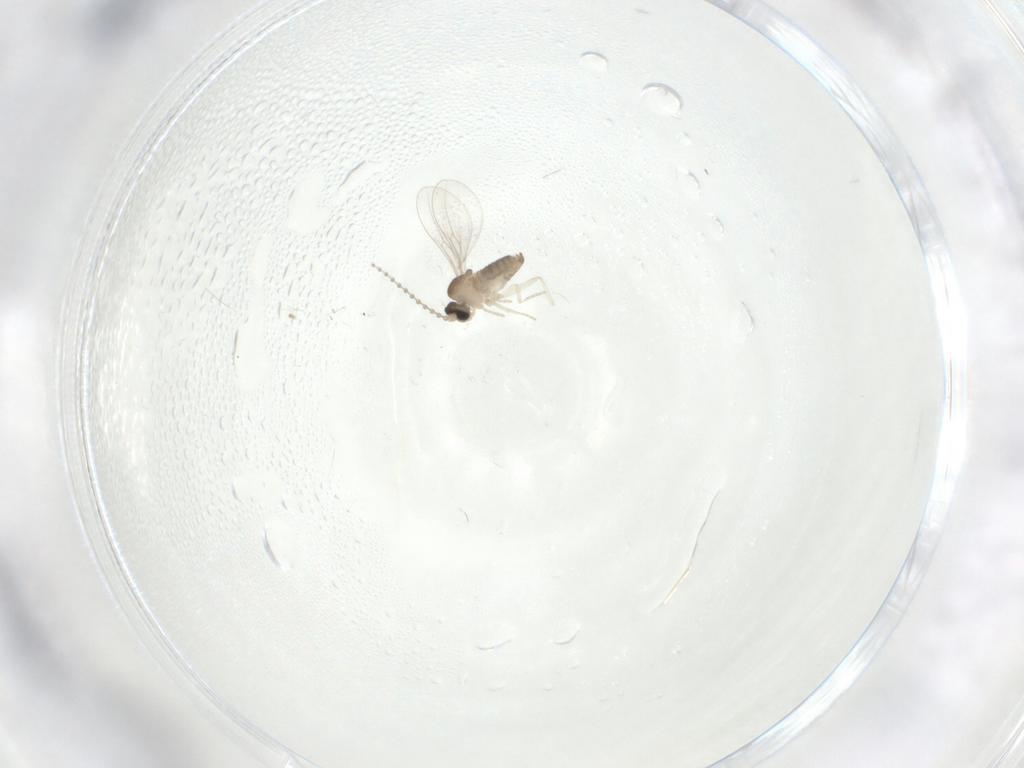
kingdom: Animalia
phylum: Arthropoda
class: Insecta
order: Diptera
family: Cecidomyiidae
